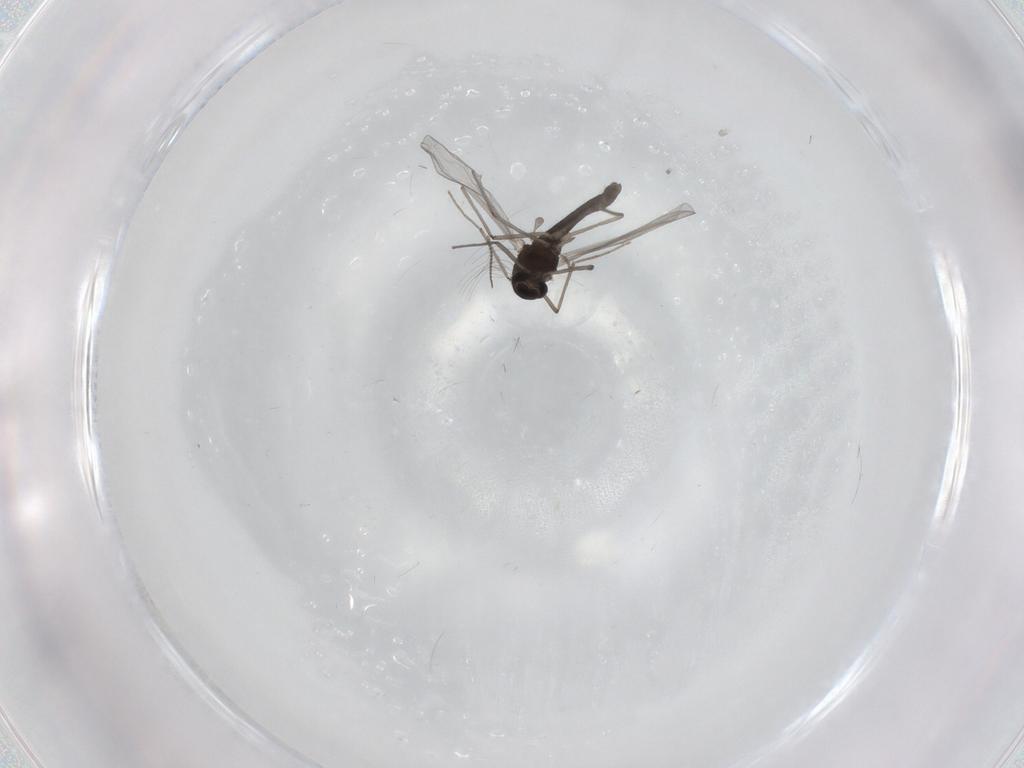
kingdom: Animalia
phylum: Arthropoda
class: Insecta
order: Diptera
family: Chironomidae
